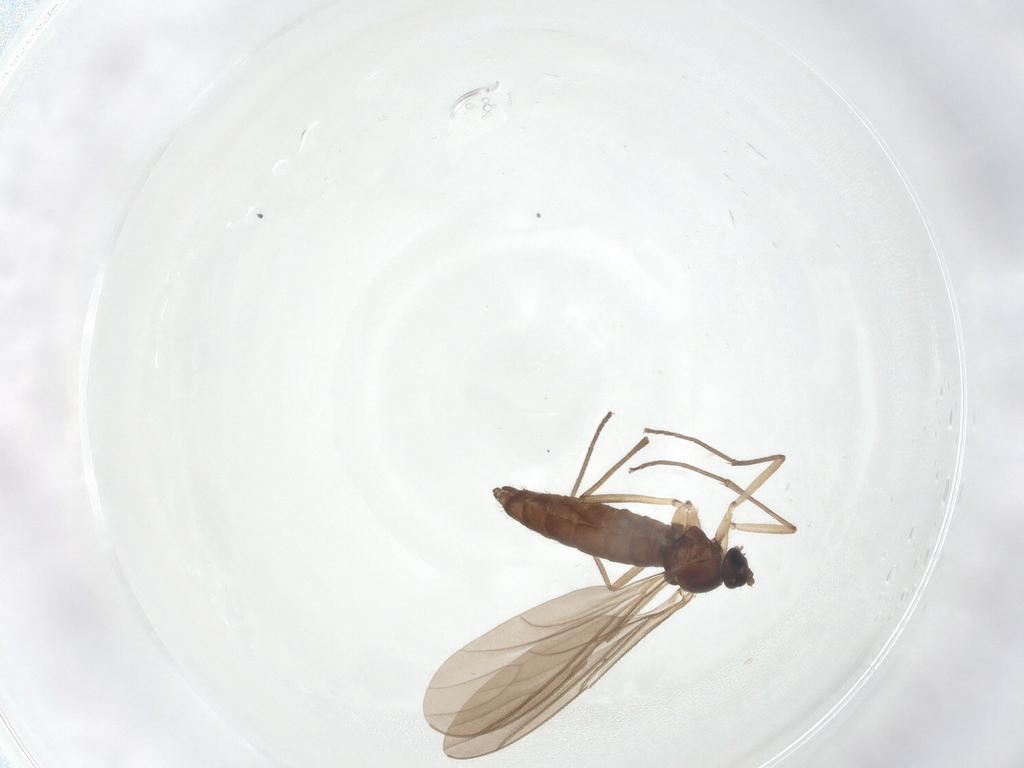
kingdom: Animalia
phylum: Arthropoda
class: Insecta
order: Diptera
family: Sciaridae
